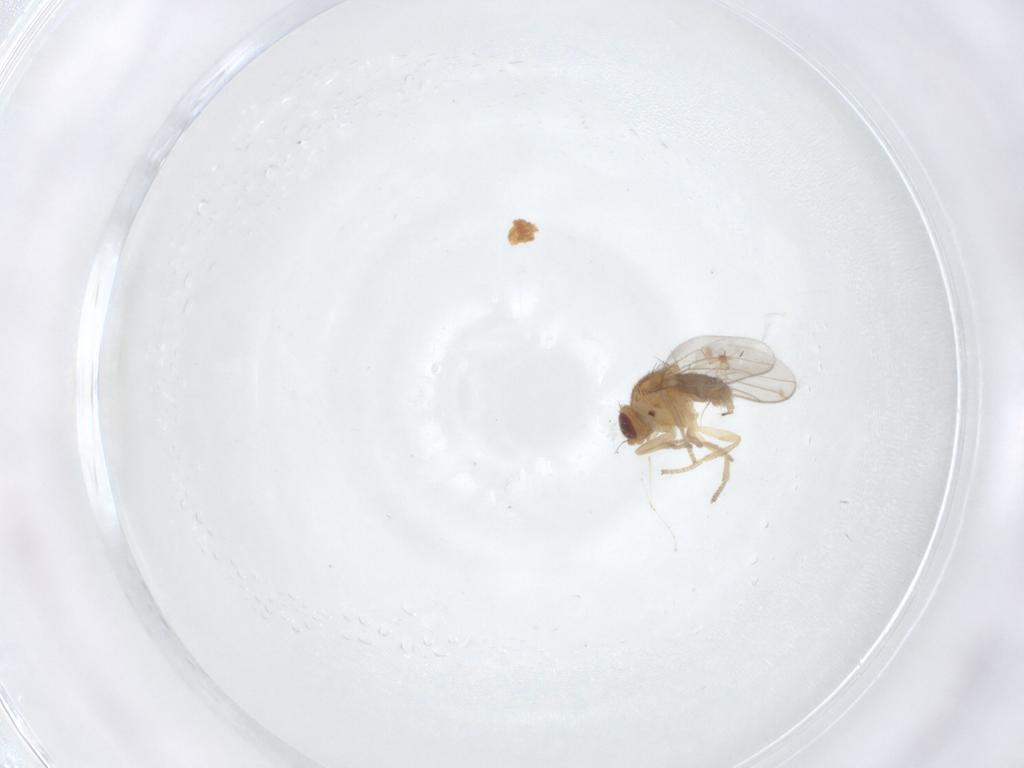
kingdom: Animalia
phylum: Arthropoda
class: Insecta
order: Diptera
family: Chloropidae
